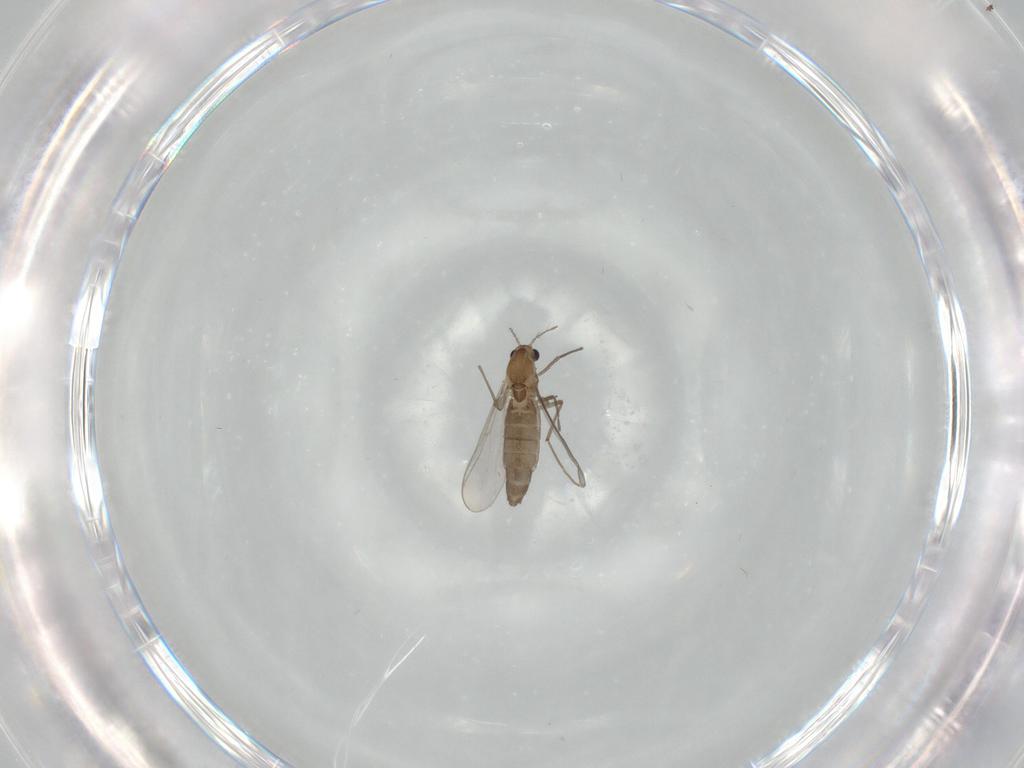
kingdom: Animalia
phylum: Arthropoda
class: Insecta
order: Diptera
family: Chironomidae
